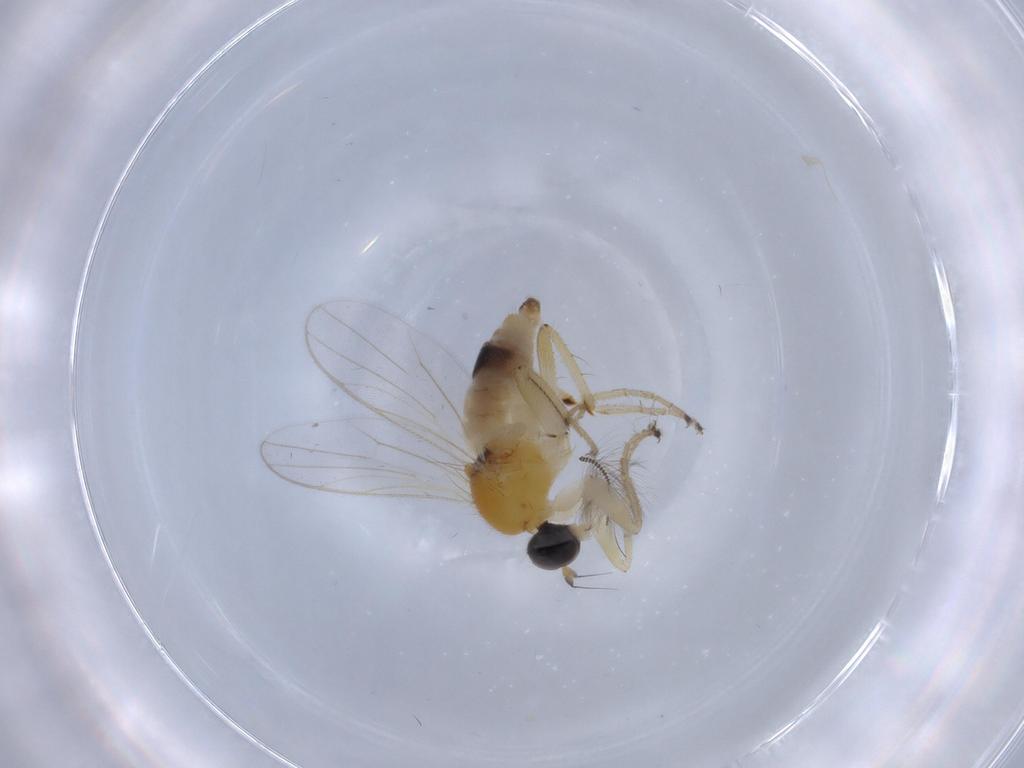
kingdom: Animalia
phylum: Arthropoda
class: Insecta
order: Diptera
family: Hybotidae
